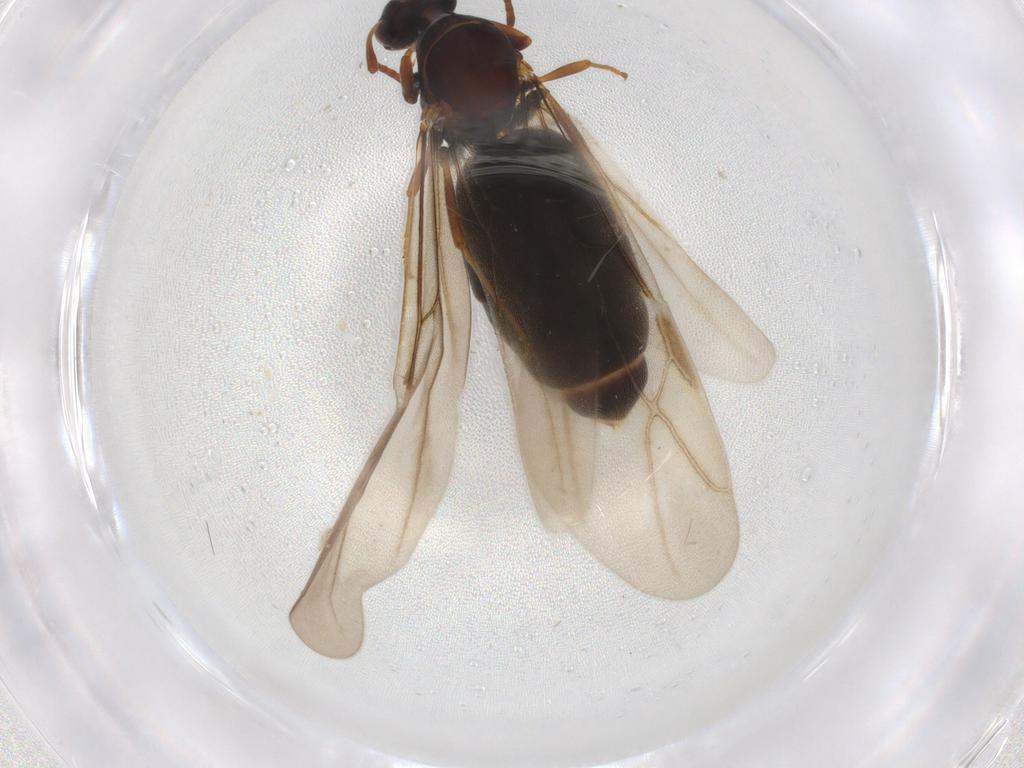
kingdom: Animalia
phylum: Arthropoda
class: Insecta
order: Hymenoptera
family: Formicidae
